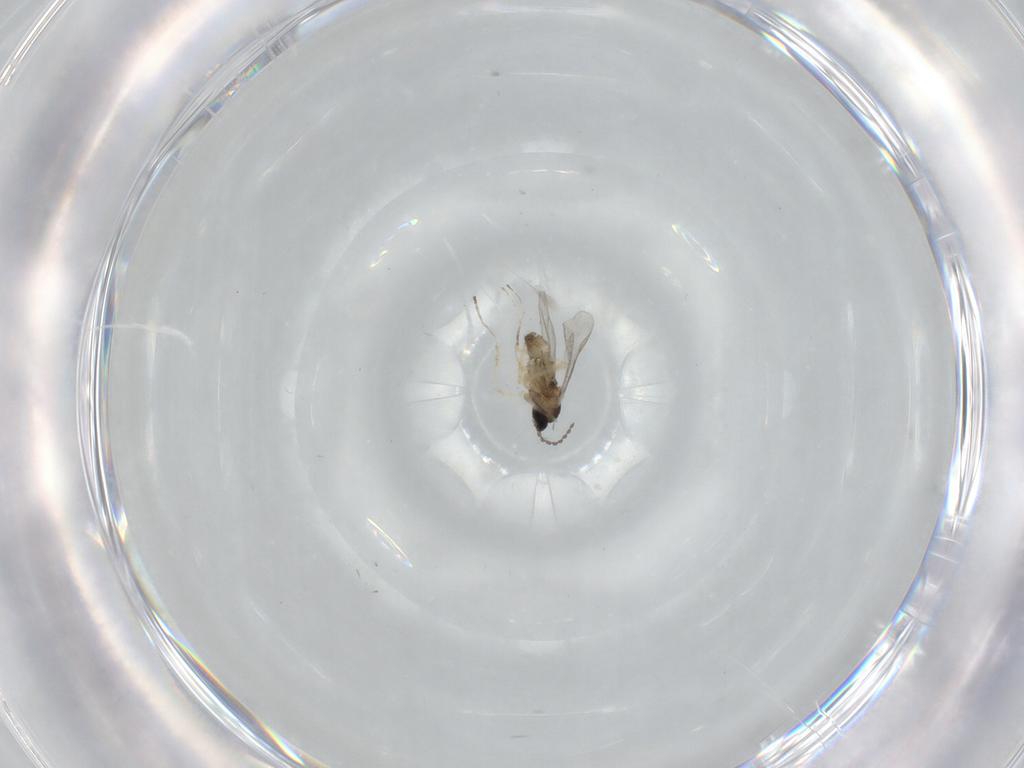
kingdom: Animalia
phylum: Arthropoda
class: Insecta
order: Diptera
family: Cecidomyiidae
